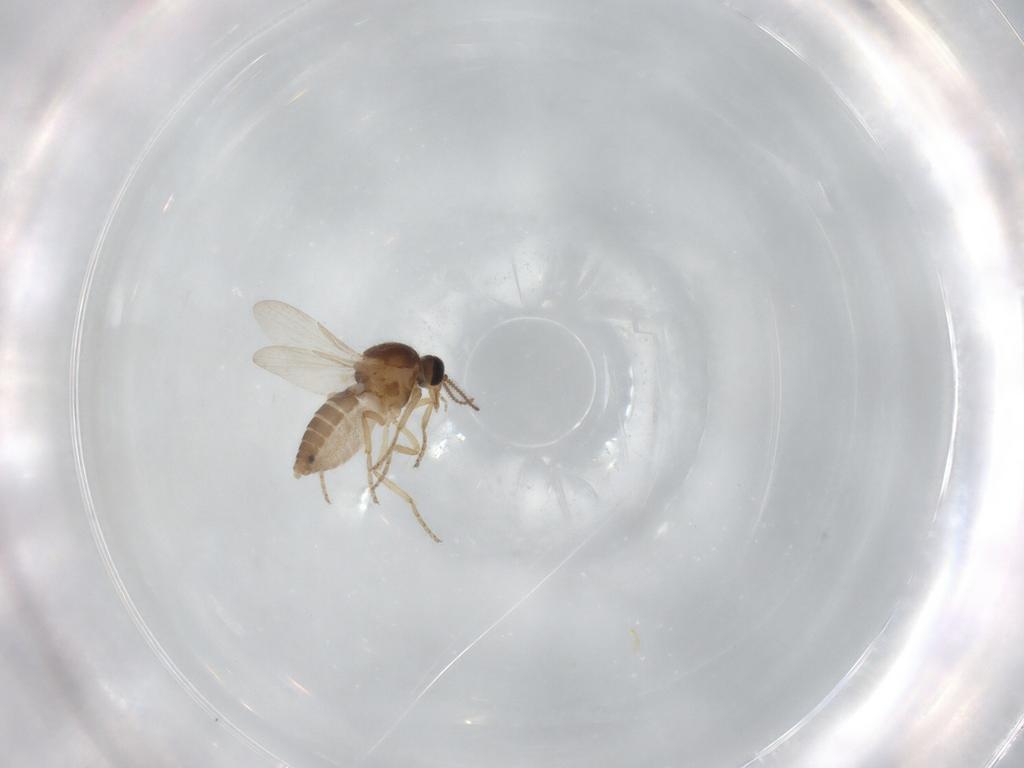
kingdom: Animalia
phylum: Arthropoda
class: Insecta
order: Diptera
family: Ceratopogonidae
